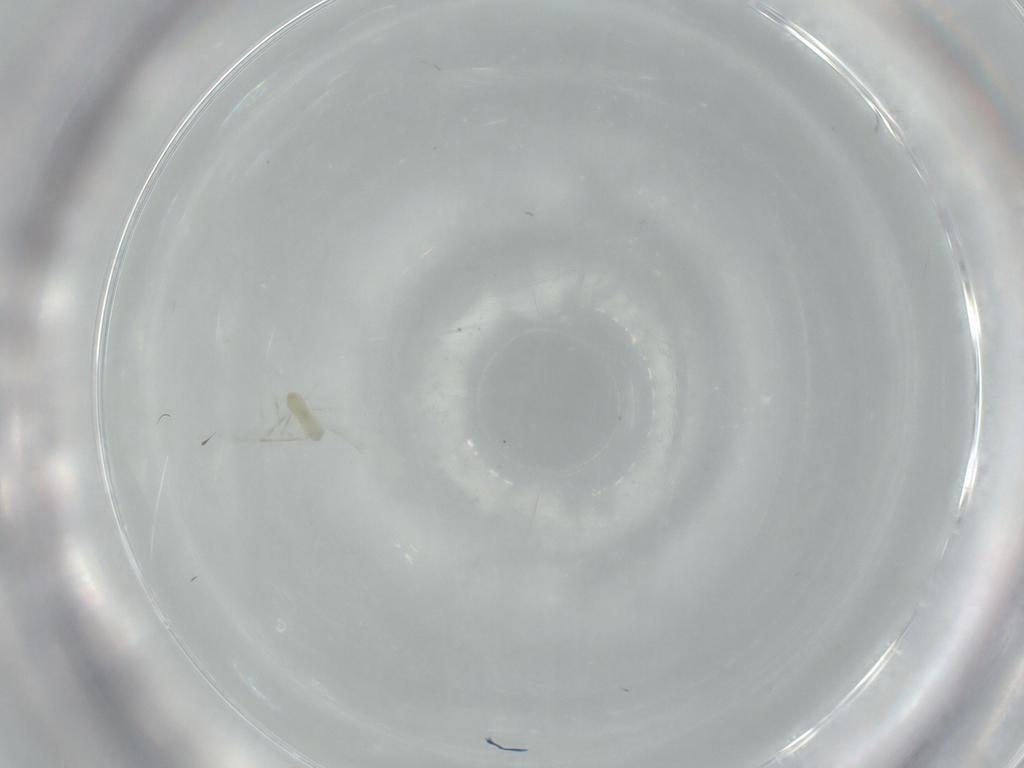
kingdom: Animalia
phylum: Arthropoda
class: Insecta
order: Diptera
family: Cecidomyiidae
